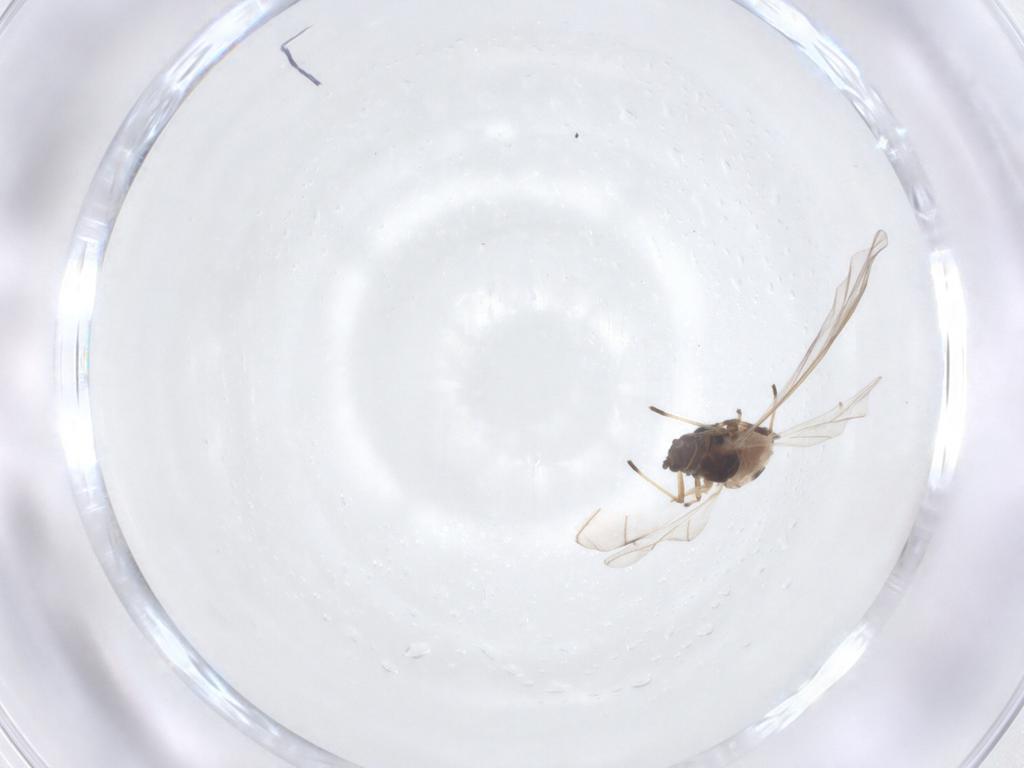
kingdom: Animalia
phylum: Arthropoda
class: Insecta
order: Hemiptera
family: Aphididae
